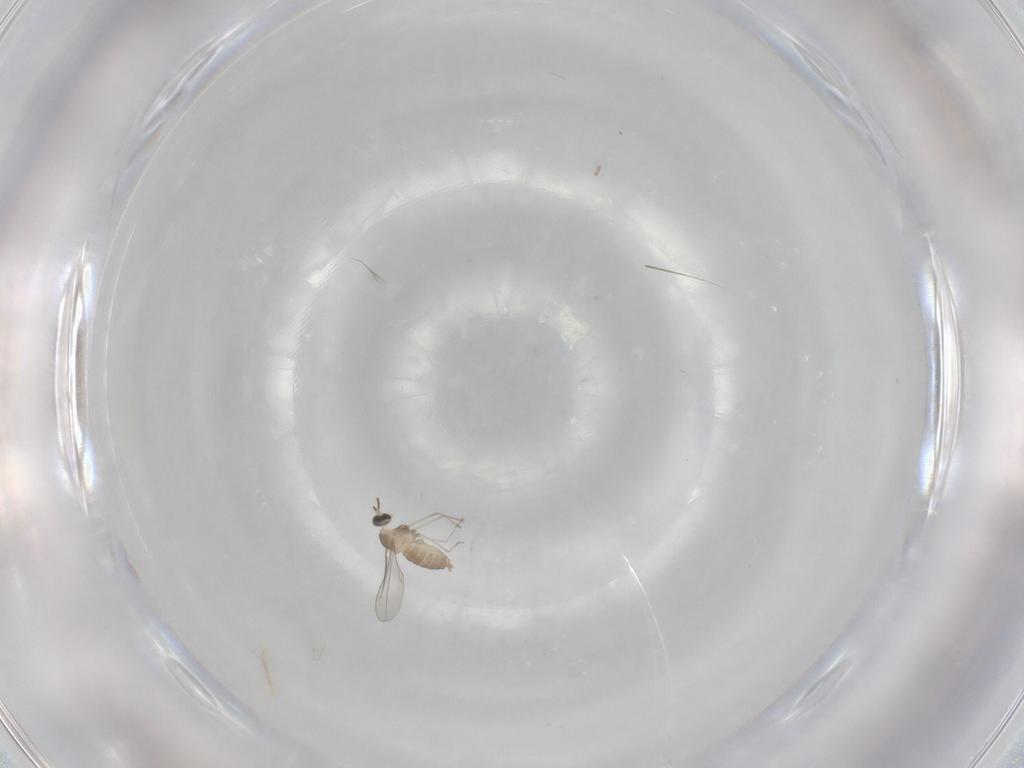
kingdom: Animalia
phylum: Arthropoda
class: Insecta
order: Diptera
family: Cecidomyiidae
